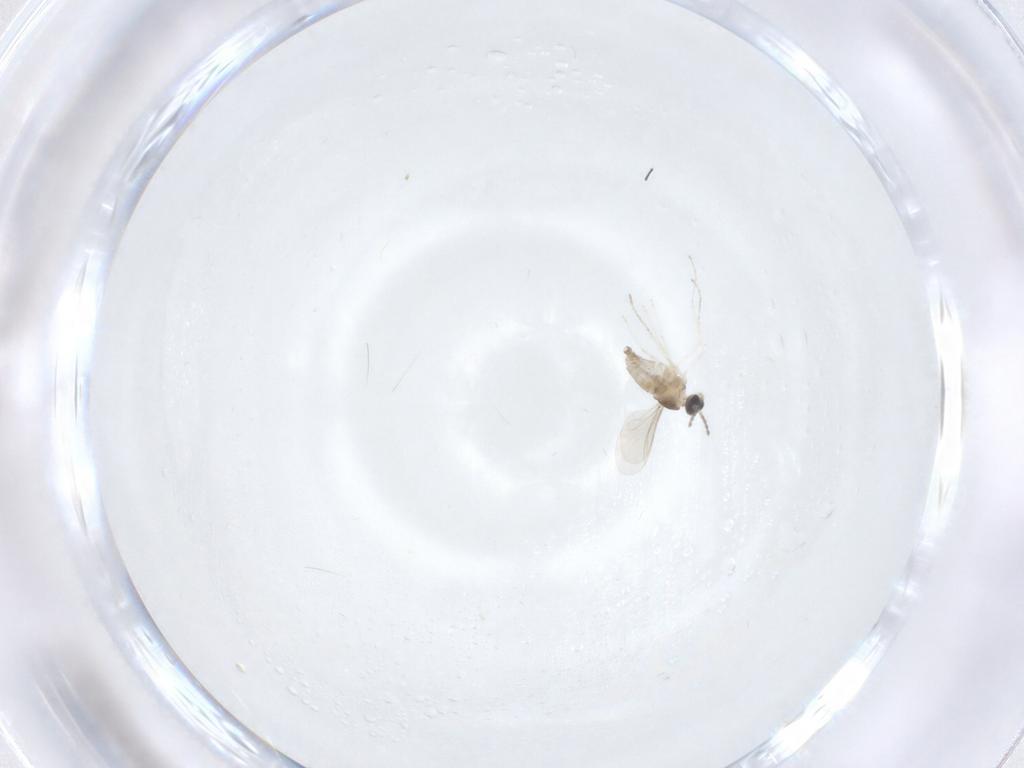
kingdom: Animalia
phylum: Arthropoda
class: Insecta
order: Diptera
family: Cecidomyiidae
